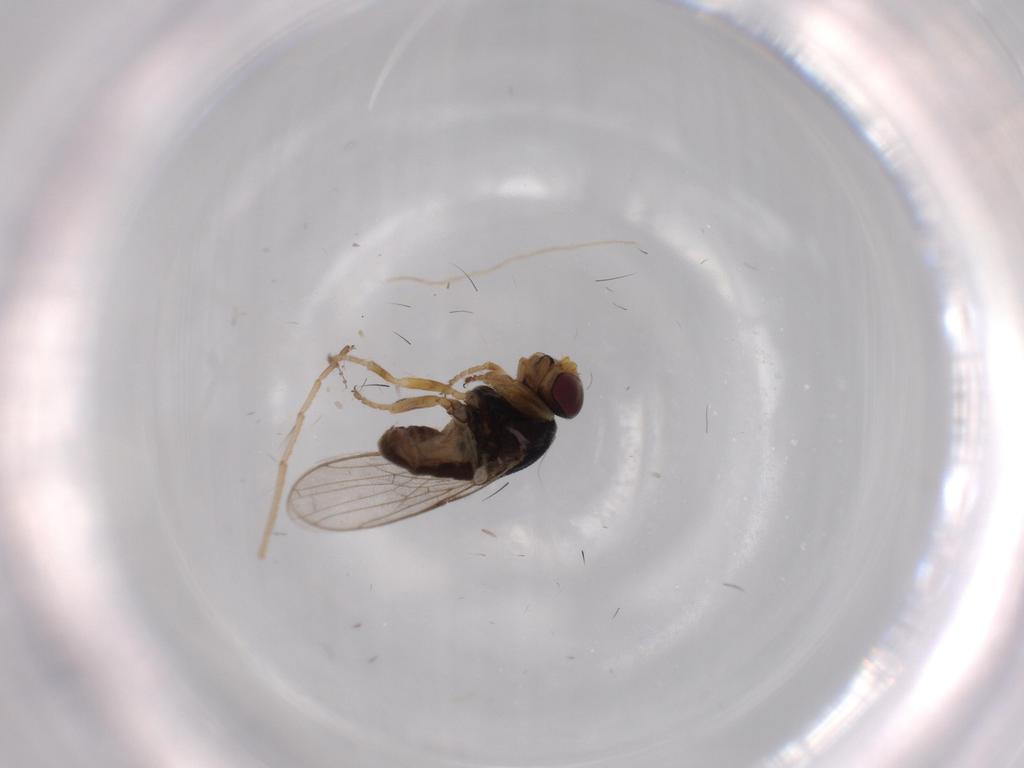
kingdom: Animalia
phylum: Arthropoda
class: Insecta
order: Diptera
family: Chloropidae
